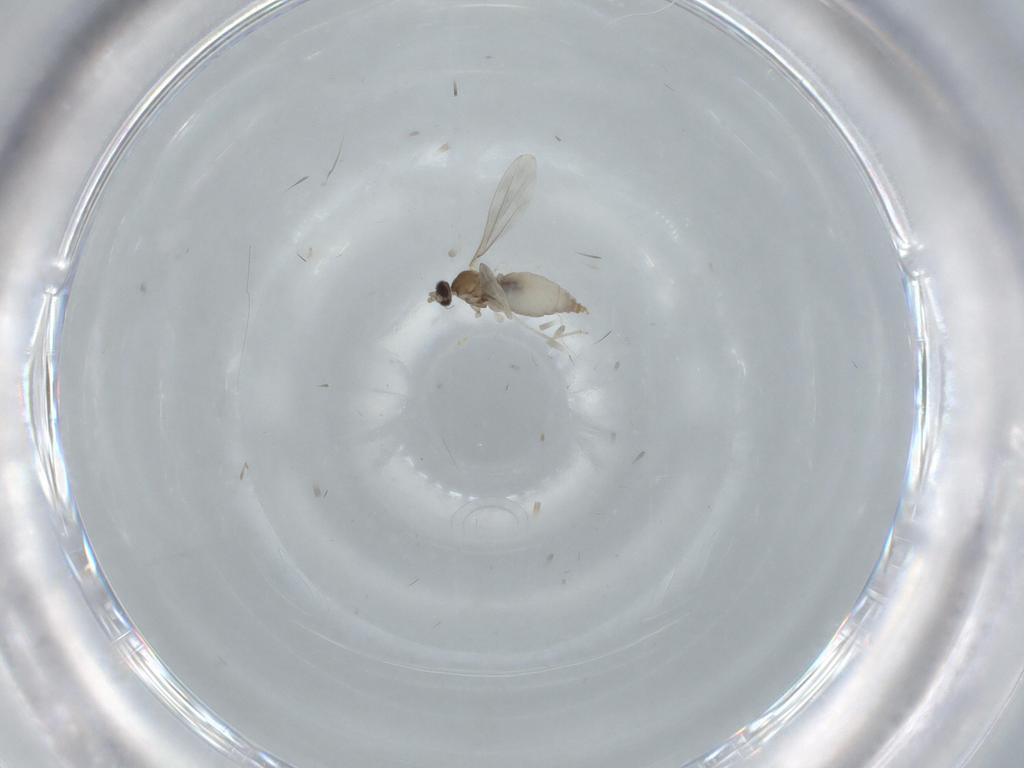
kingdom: Animalia
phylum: Arthropoda
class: Insecta
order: Diptera
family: Cecidomyiidae
